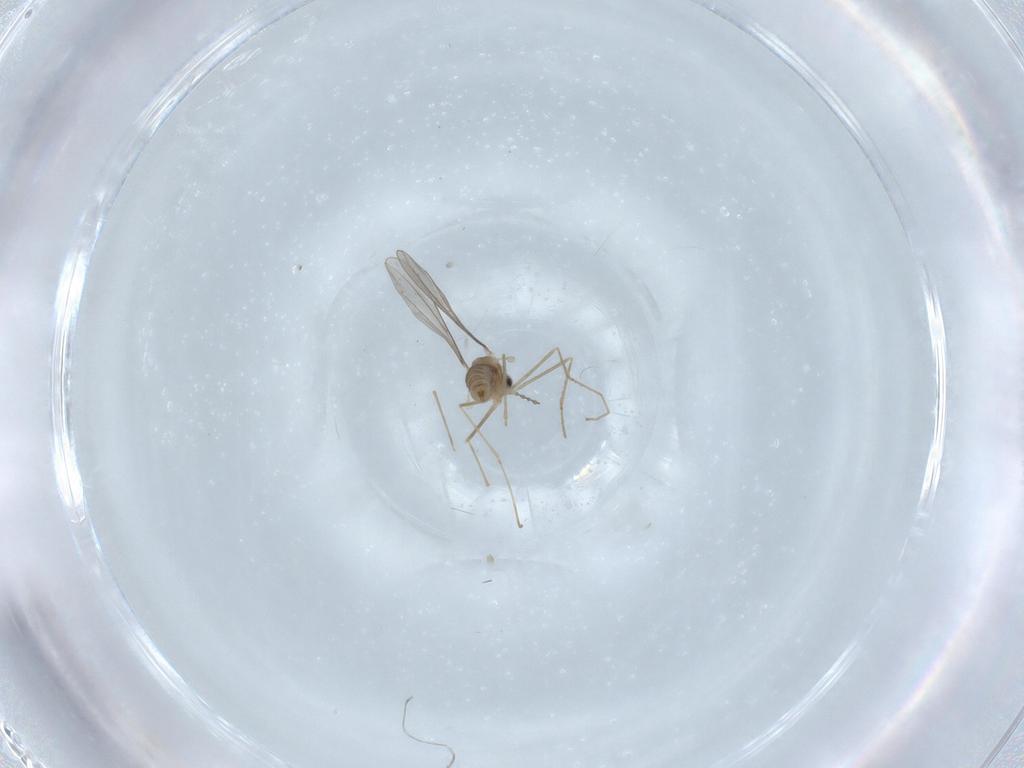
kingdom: Animalia
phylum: Arthropoda
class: Insecta
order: Diptera
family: Cecidomyiidae
